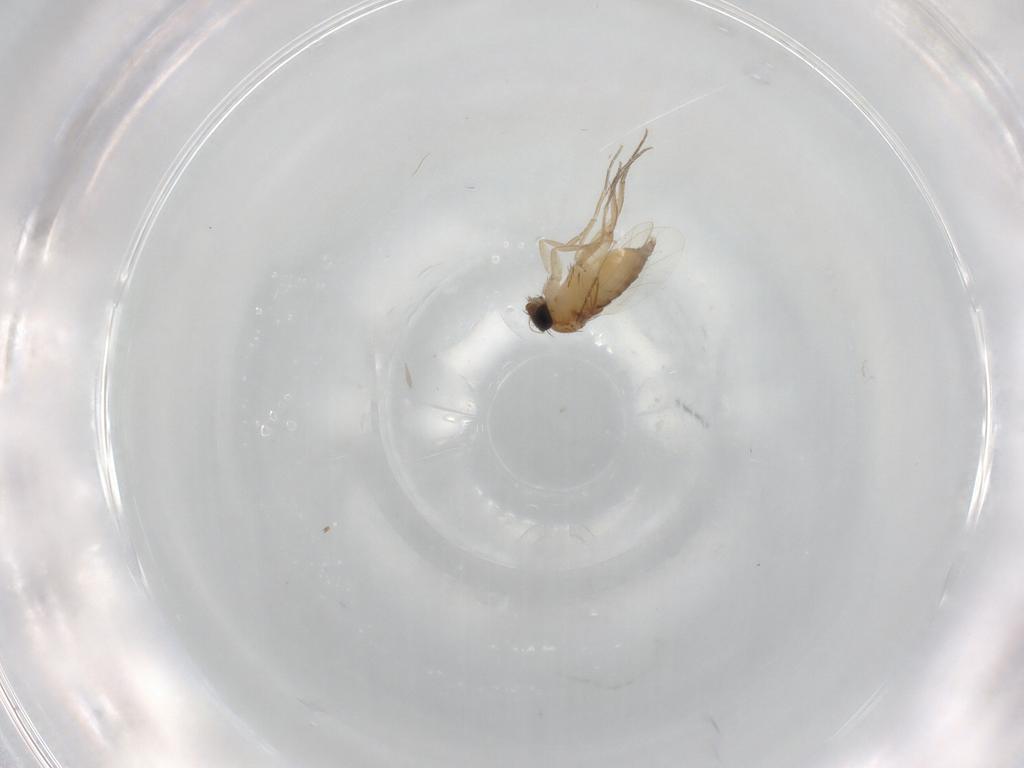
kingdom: Animalia
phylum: Arthropoda
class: Insecta
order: Diptera
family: Phoridae
